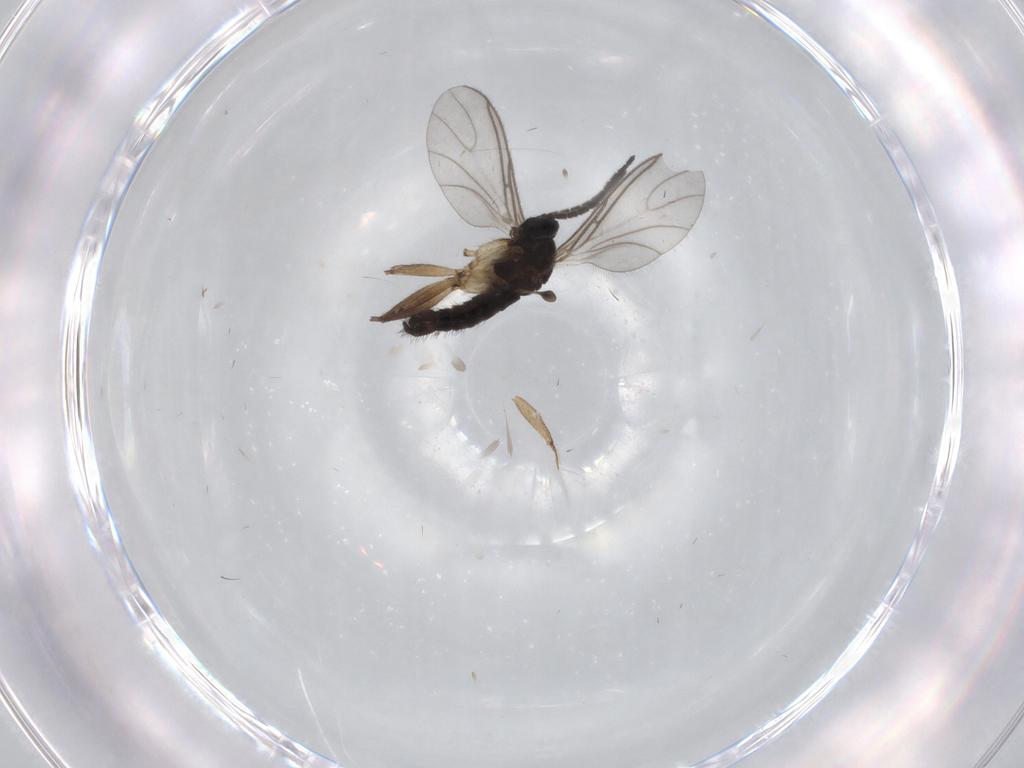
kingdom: Animalia
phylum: Arthropoda
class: Insecta
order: Diptera
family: Sciaridae
